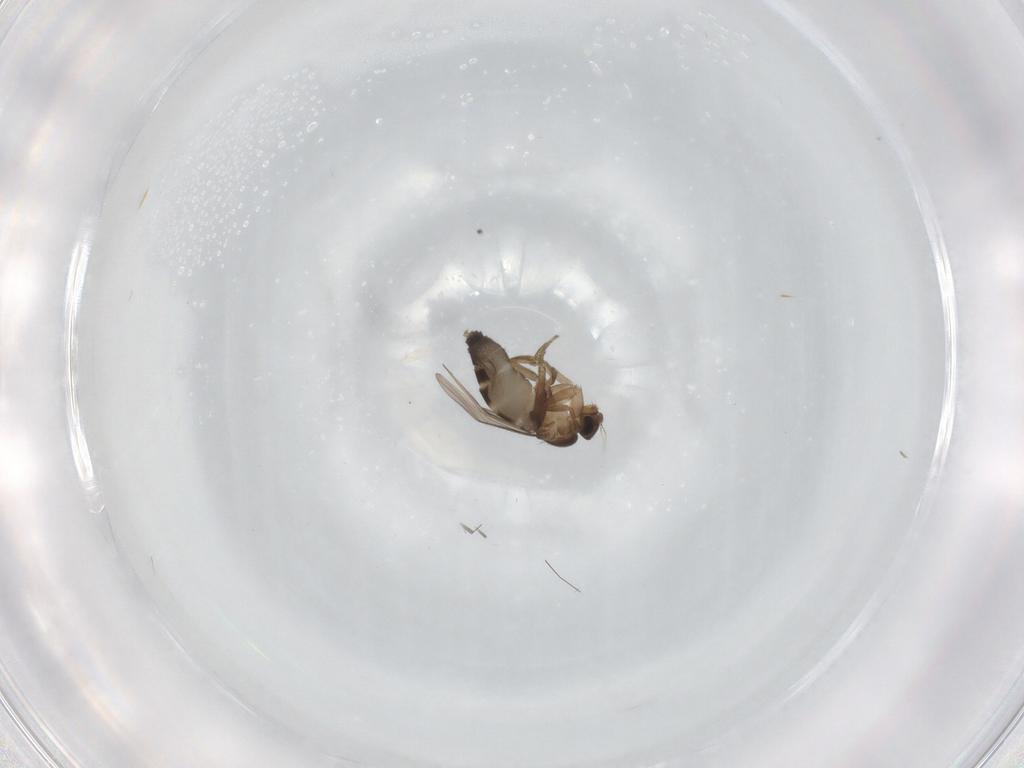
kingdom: Animalia
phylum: Arthropoda
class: Insecta
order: Diptera
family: Phoridae
